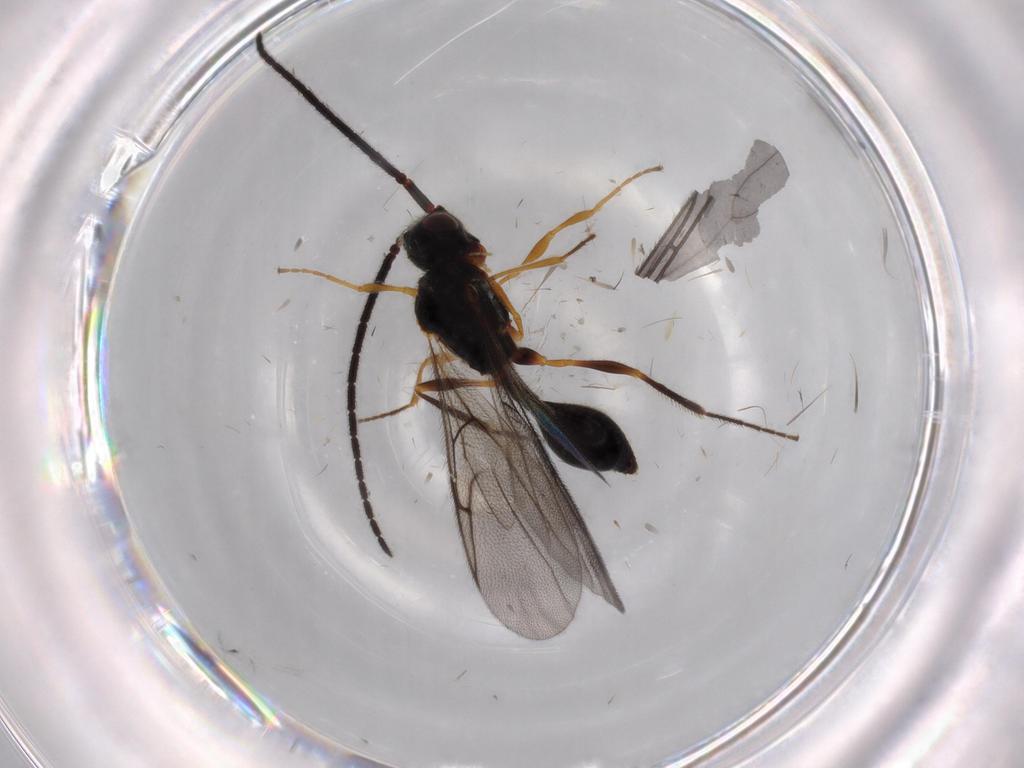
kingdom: Animalia
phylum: Arthropoda
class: Insecta
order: Hymenoptera
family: Diapriidae
